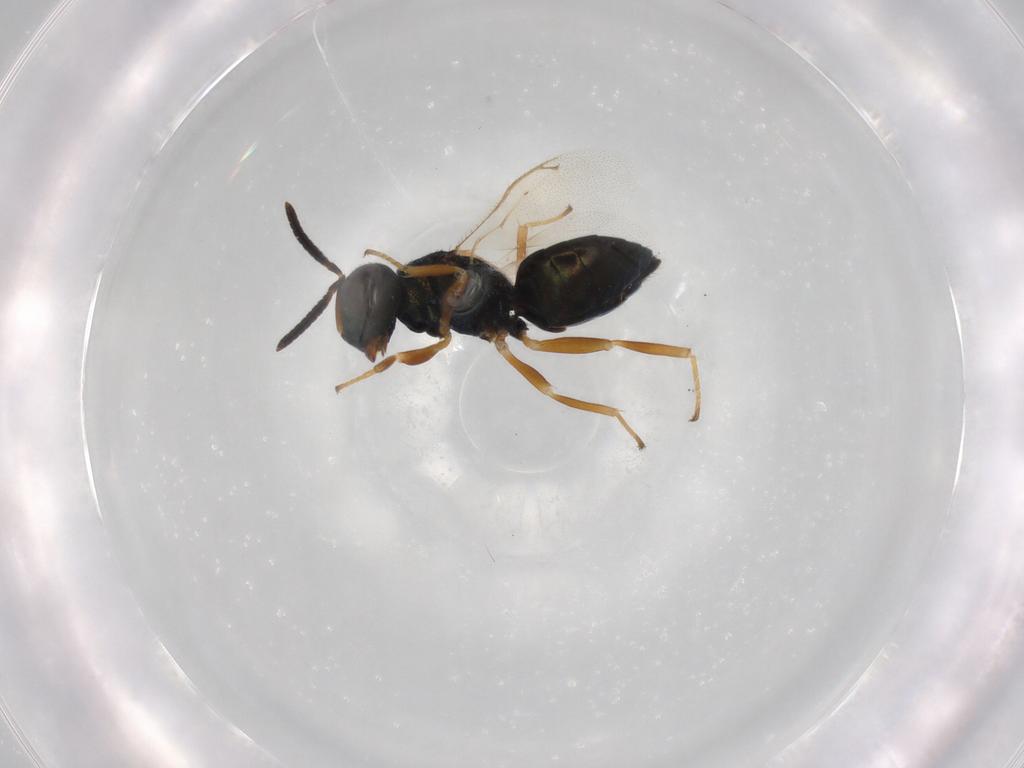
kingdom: Animalia
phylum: Arthropoda
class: Insecta
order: Hymenoptera
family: Pteromalidae
